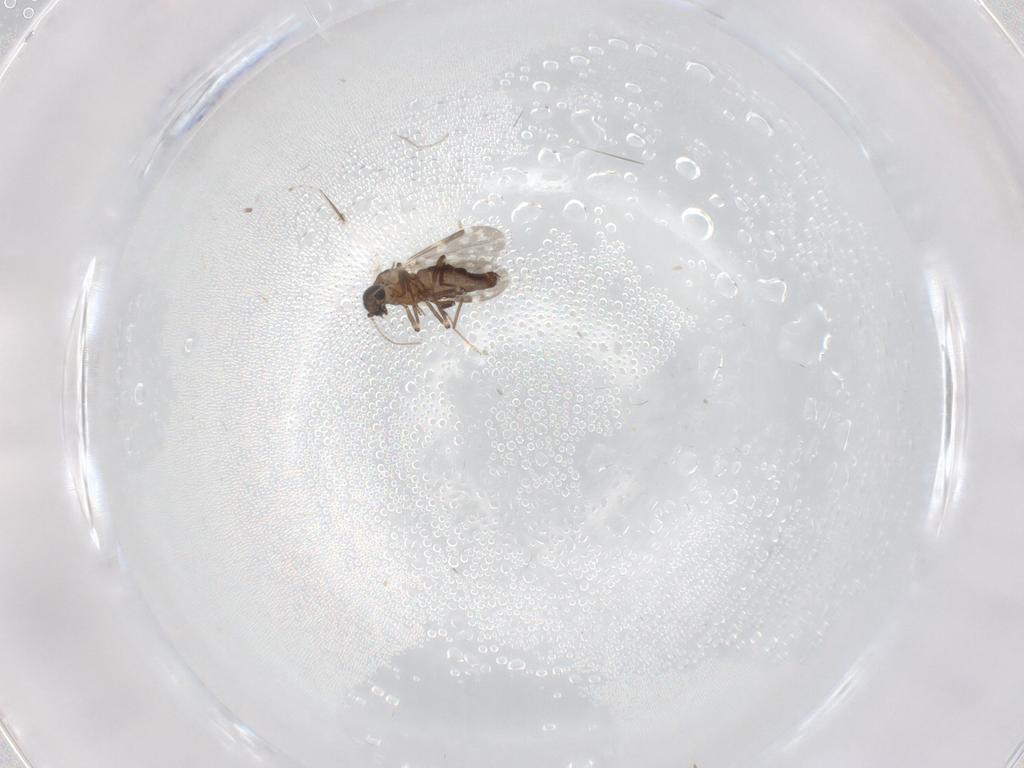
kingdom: Animalia
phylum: Arthropoda
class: Insecta
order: Diptera
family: Ceratopogonidae
